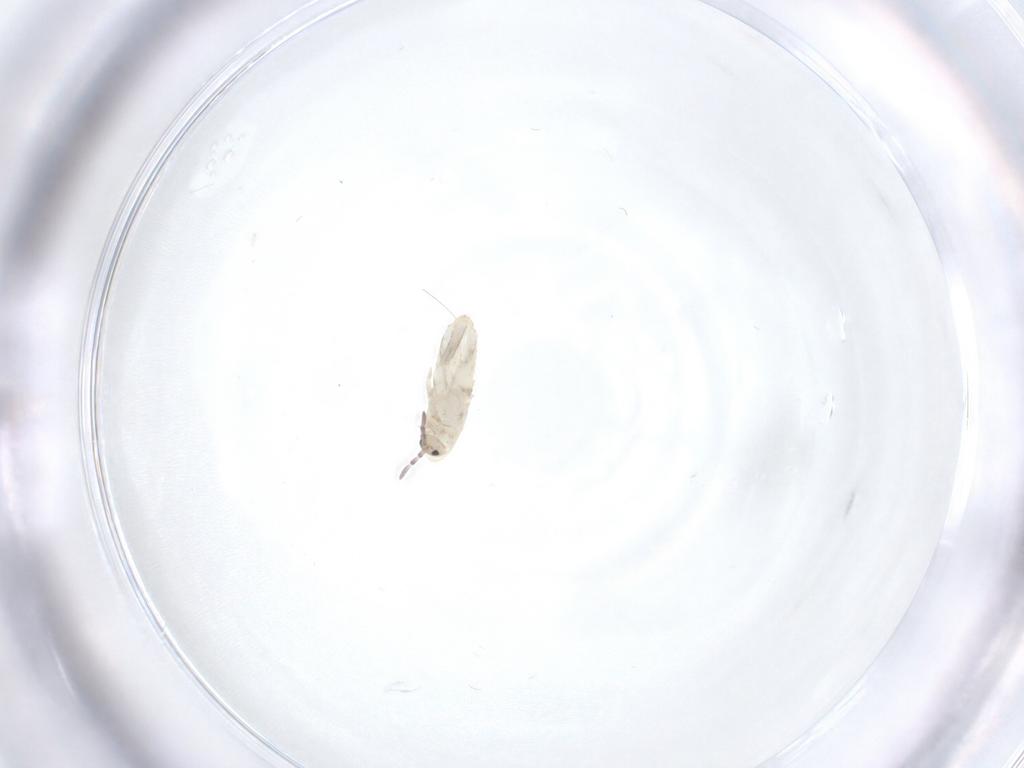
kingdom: Animalia
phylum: Arthropoda
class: Collembola
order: Entomobryomorpha
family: Entomobryidae
